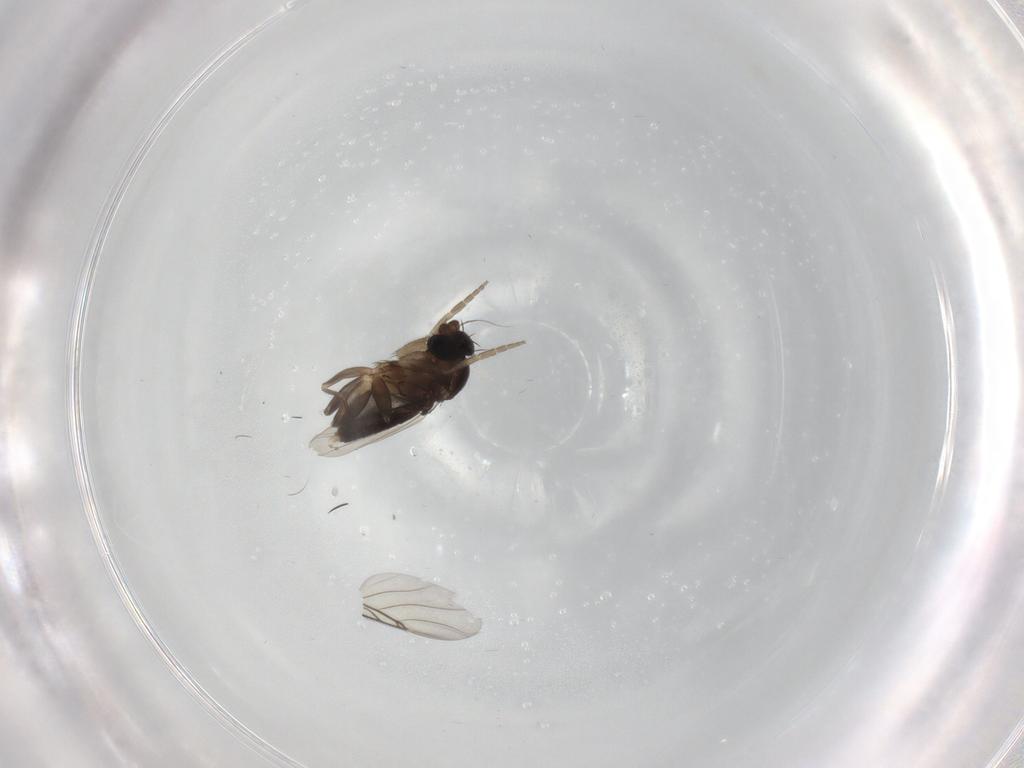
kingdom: Animalia
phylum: Arthropoda
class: Insecta
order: Diptera
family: Phoridae
